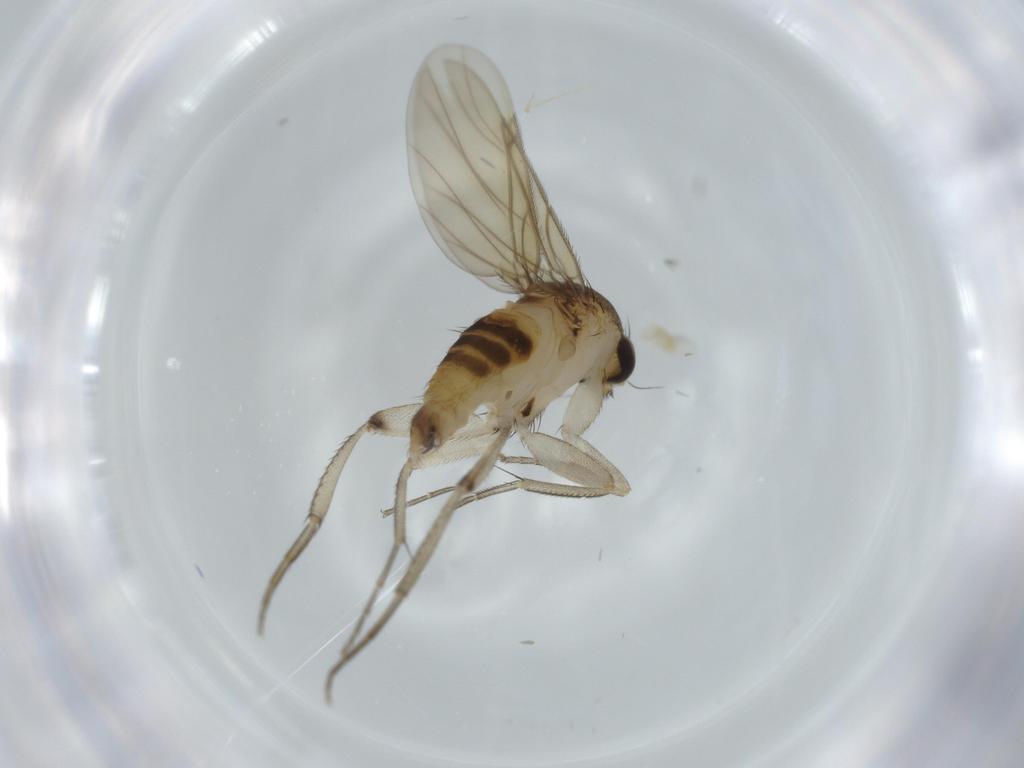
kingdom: Animalia
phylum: Arthropoda
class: Insecta
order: Diptera
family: Phoridae
